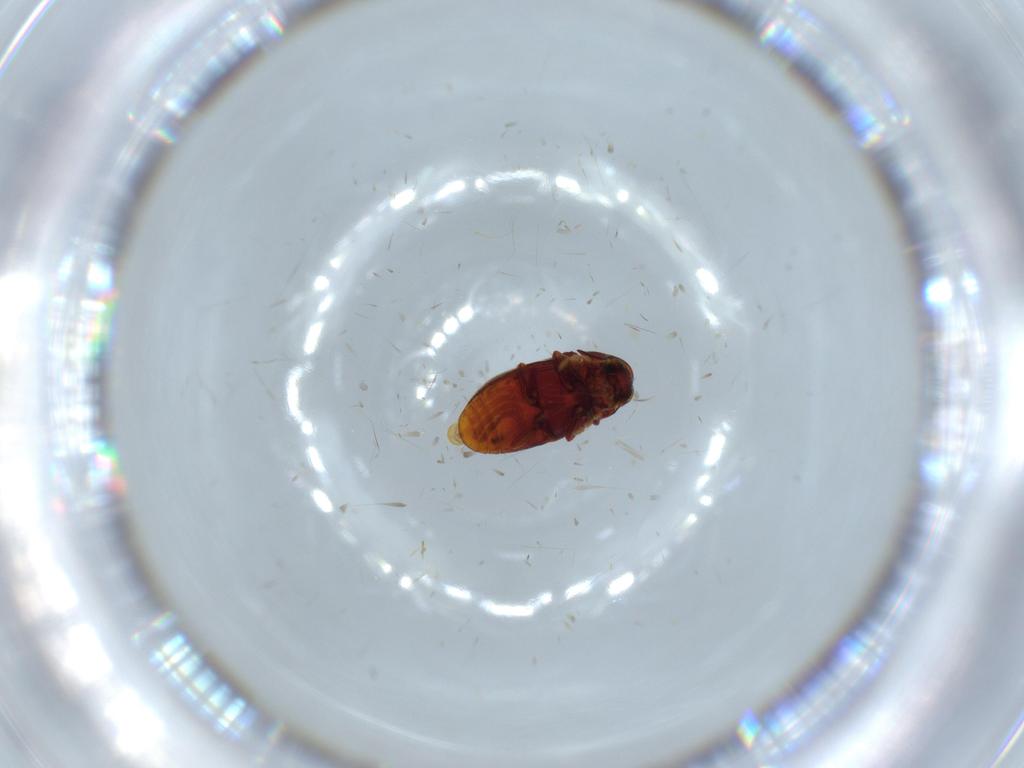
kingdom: Animalia
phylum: Arthropoda
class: Insecta
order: Coleoptera
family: Ptinidae
